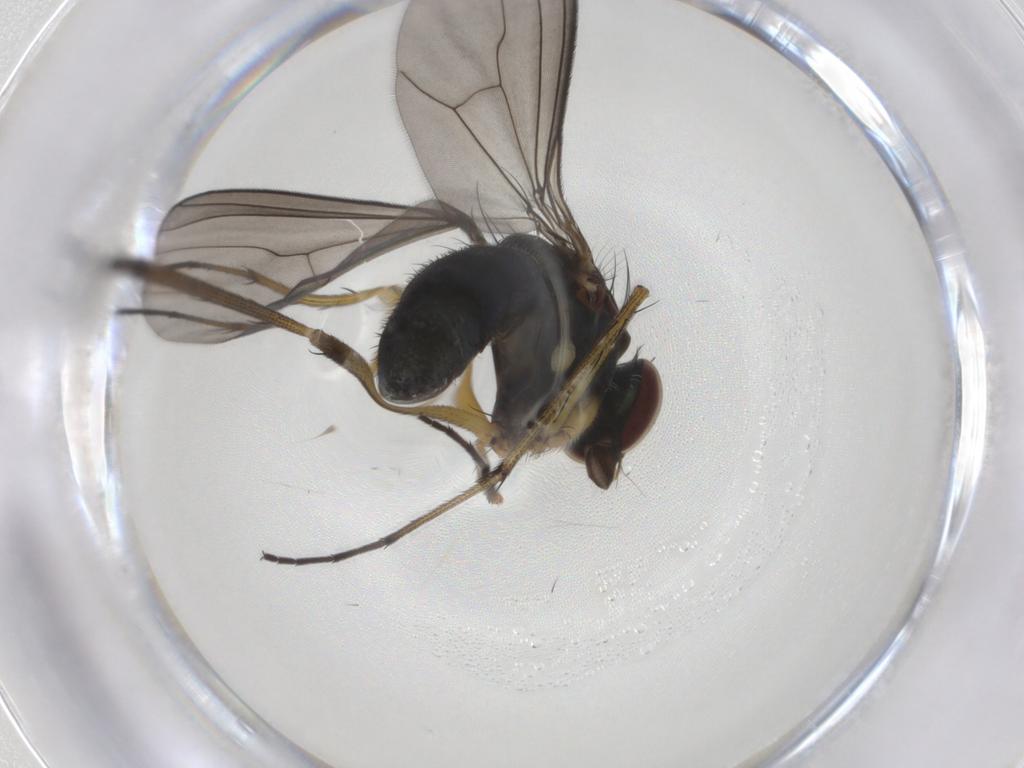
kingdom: Animalia
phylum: Arthropoda
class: Insecta
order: Diptera
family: Dolichopodidae
